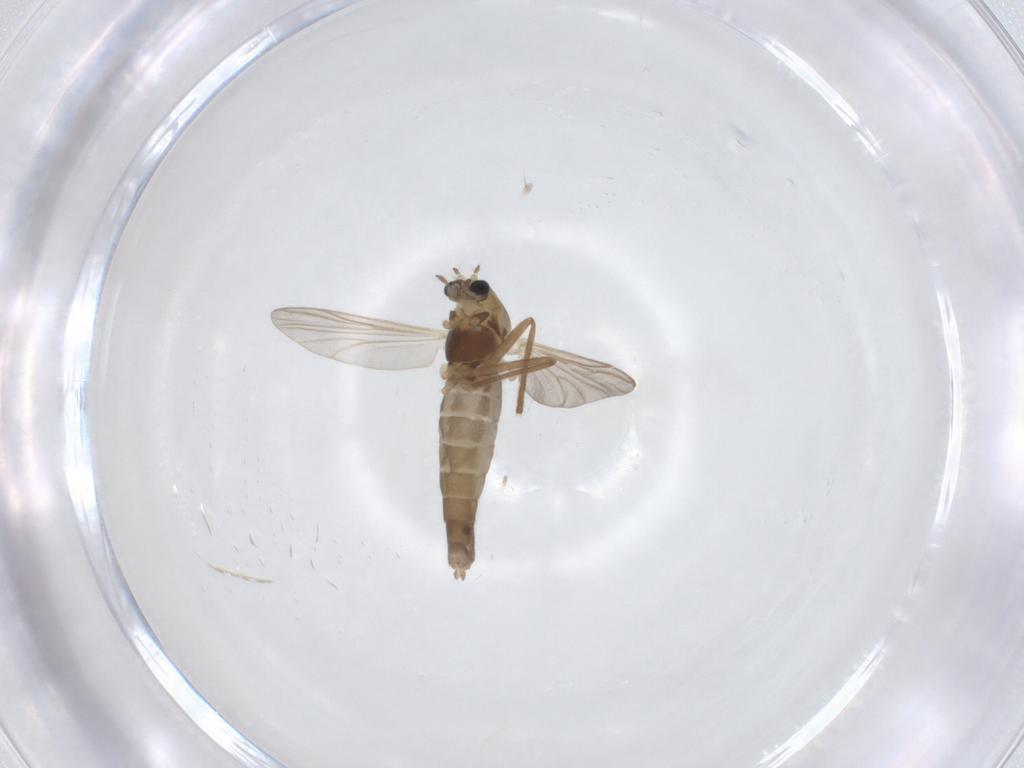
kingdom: Animalia
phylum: Arthropoda
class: Insecta
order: Diptera
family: Chironomidae
